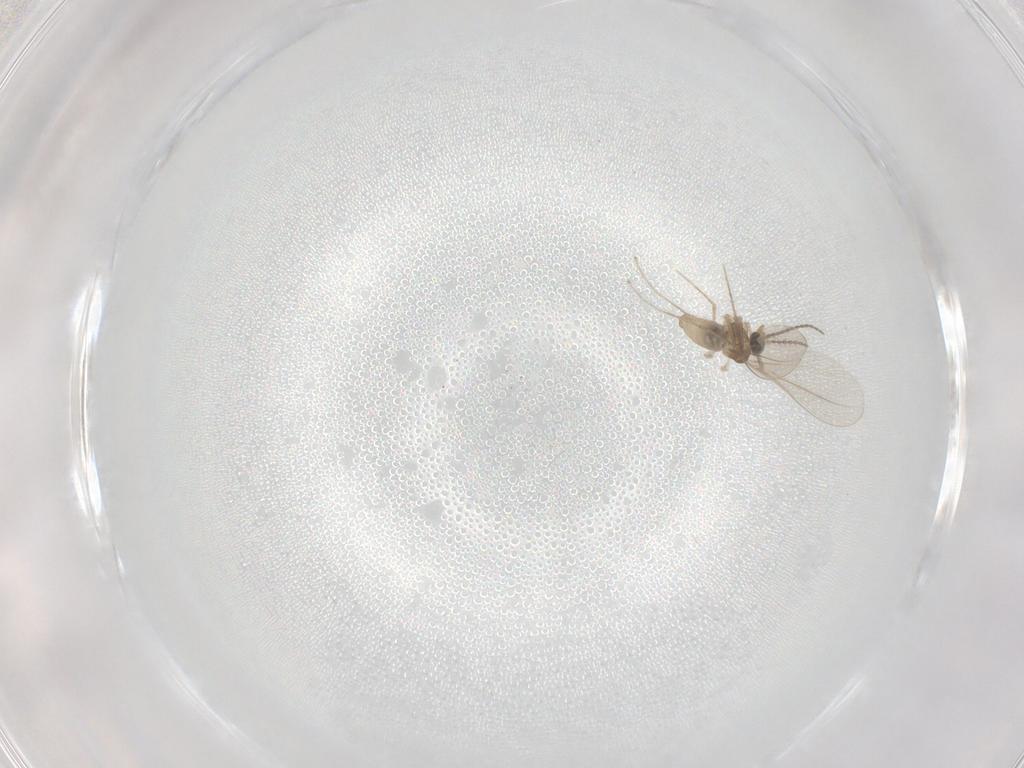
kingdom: Animalia
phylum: Arthropoda
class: Insecta
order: Diptera
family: Cecidomyiidae
